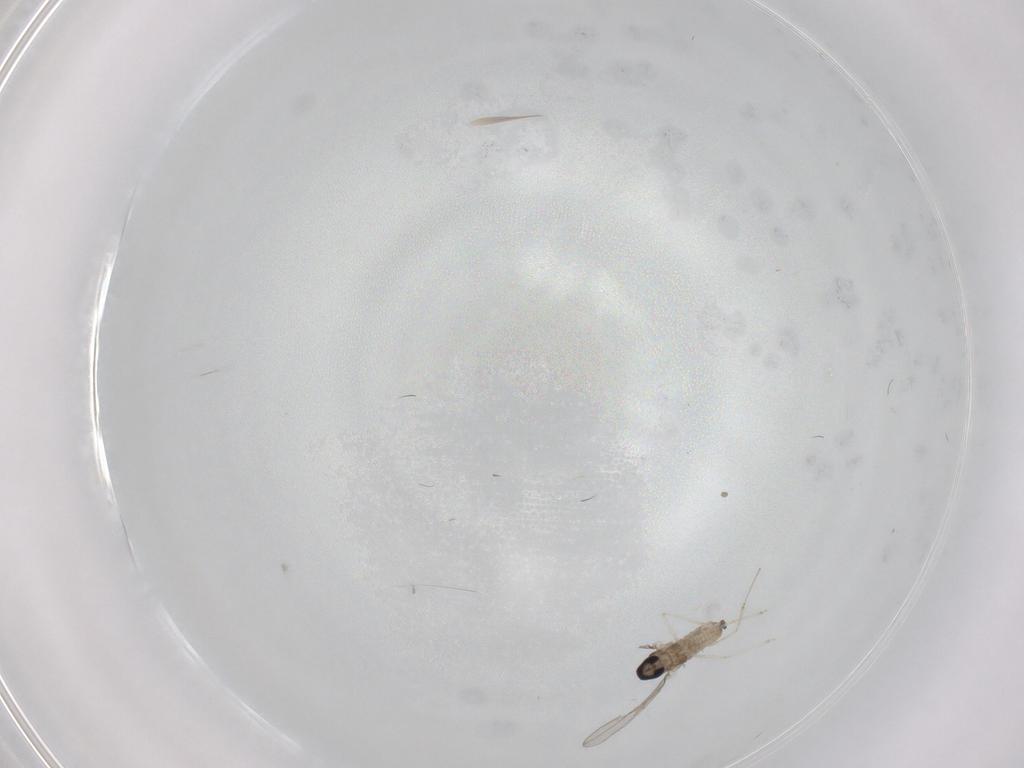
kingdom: Animalia
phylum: Arthropoda
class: Insecta
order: Diptera
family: Cecidomyiidae
